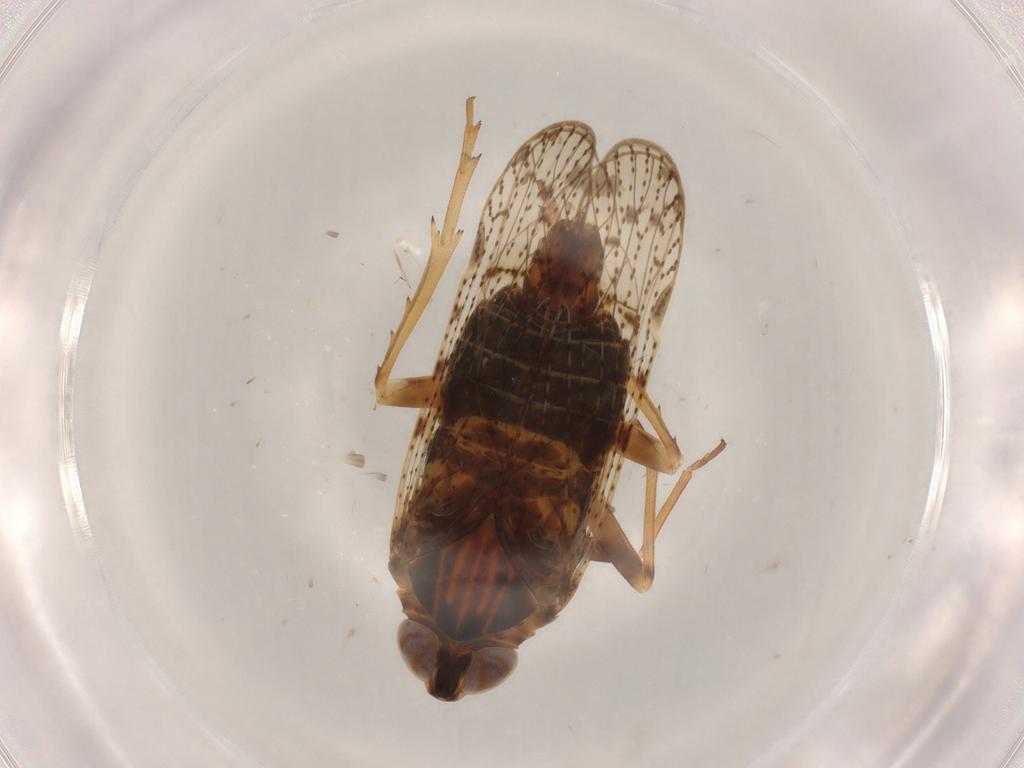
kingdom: Animalia
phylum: Arthropoda
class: Insecta
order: Hemiptera
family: Cixiidae
